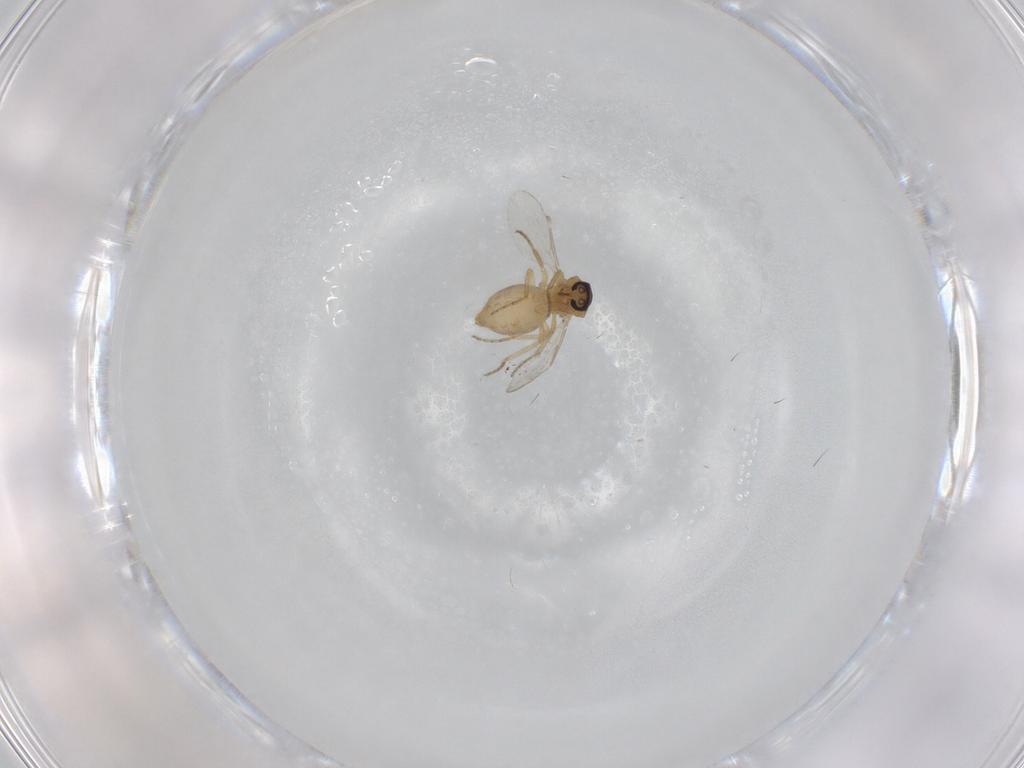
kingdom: Animalia
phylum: Arthropoda
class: Insecta
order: Diptera
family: Ceratopogonidae
